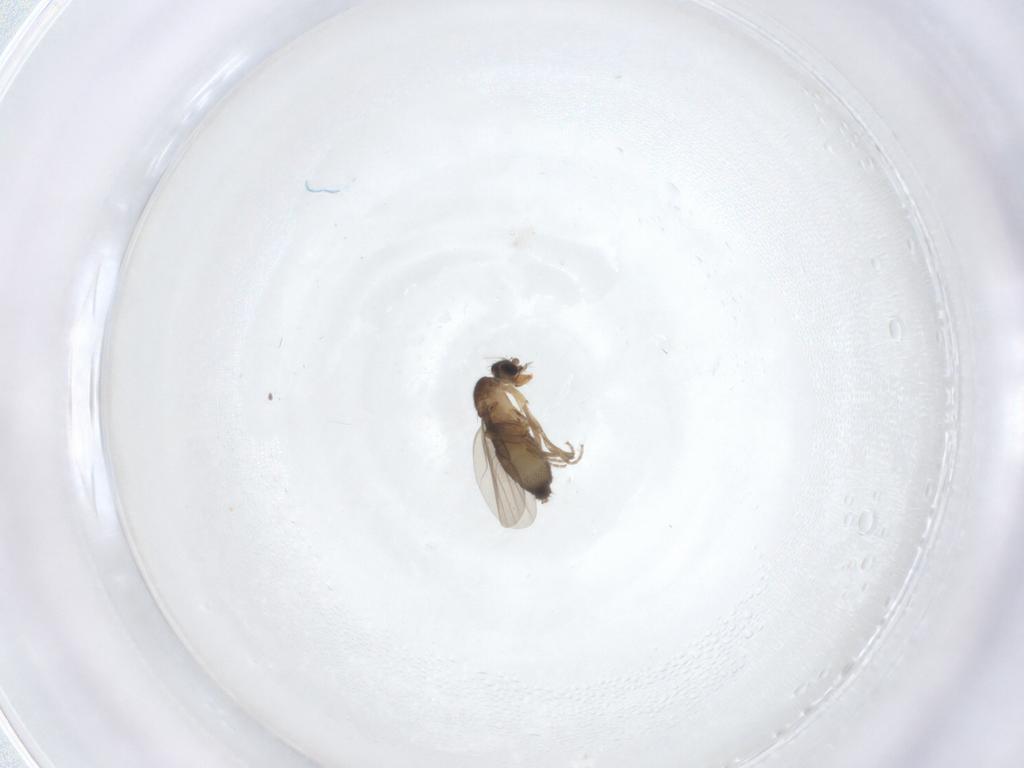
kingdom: Animalia
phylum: Arthropoda
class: Insecta
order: Diptera
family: Phoridae
